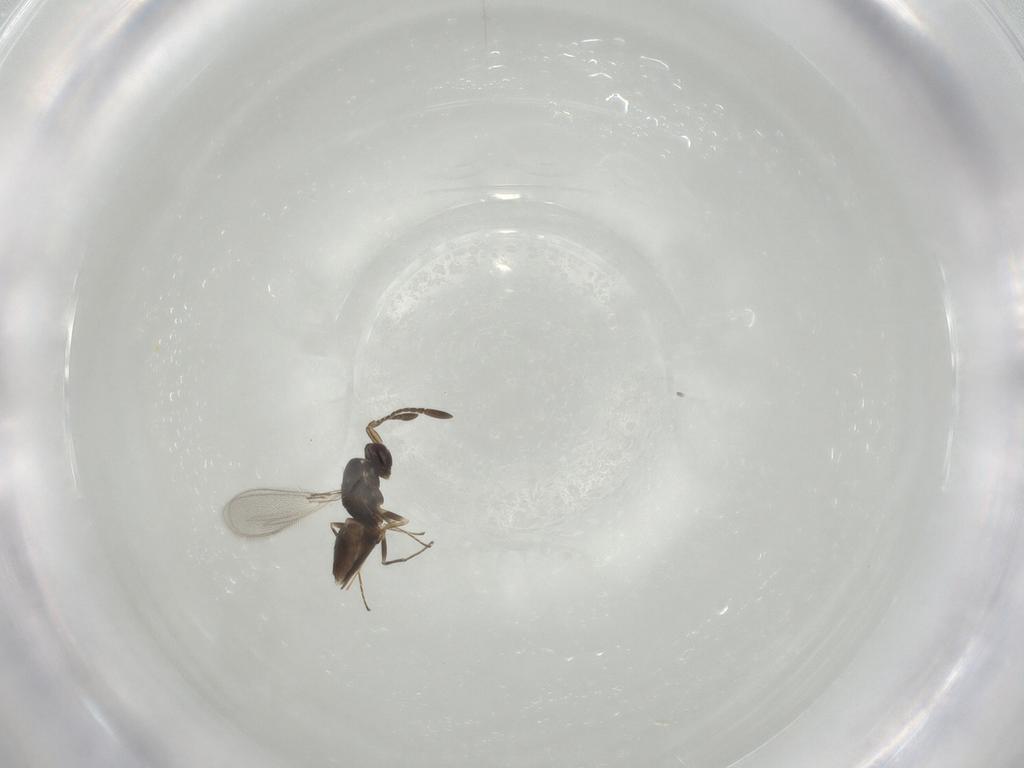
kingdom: Animalia
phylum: Arthropoda
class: Insecta
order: Hymenoptera
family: Mymaridae
